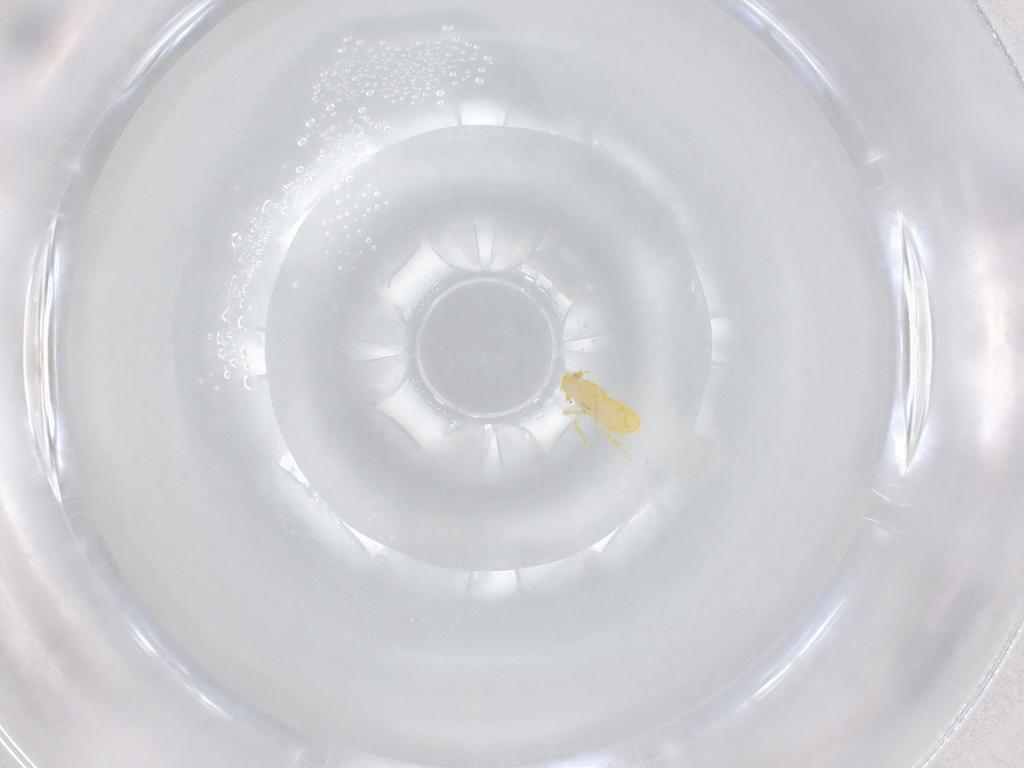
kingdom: Animalia
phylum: Arthropoda
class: Insecta
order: Hemiptera
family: Delphacidae
